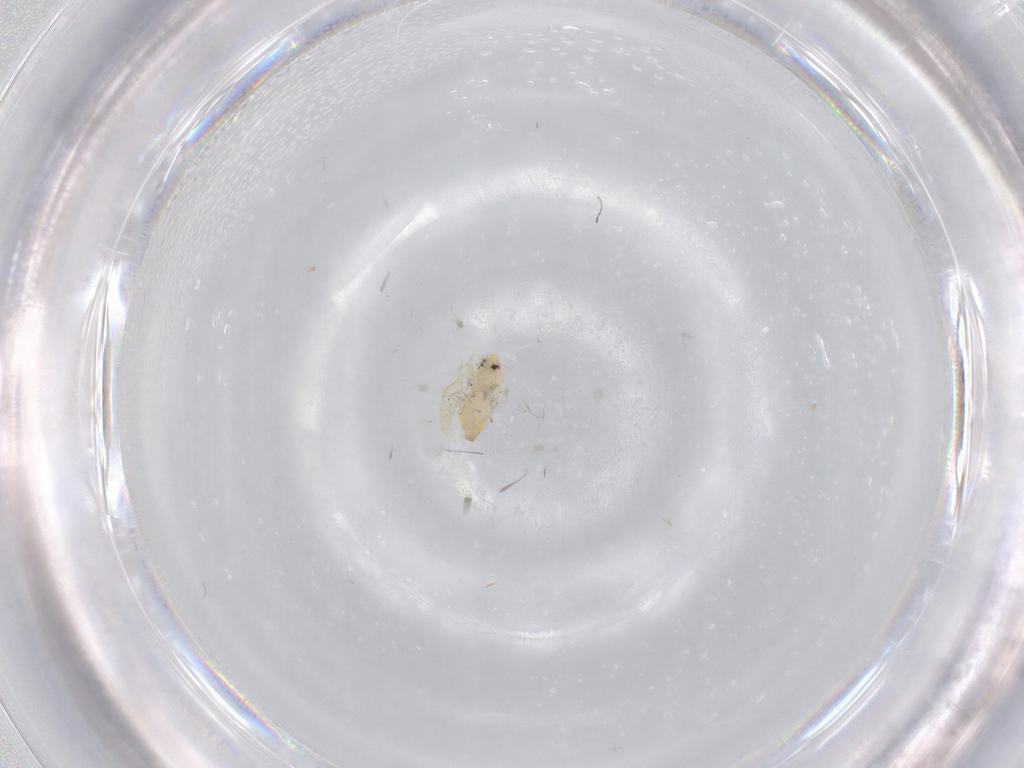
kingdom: Animalia
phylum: Arthropoda
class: Insecta
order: Hemiptera
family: Aleyrodidae
